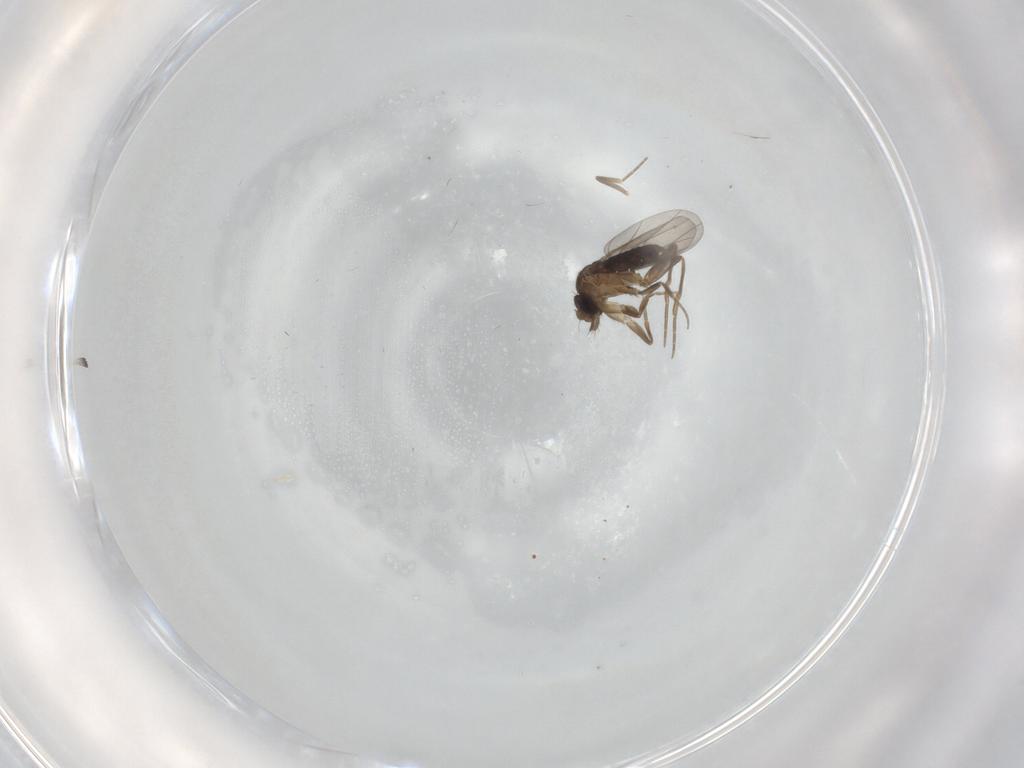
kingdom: Animalia
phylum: Arthropoda
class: Insecta
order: Diptera
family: Phoridae
